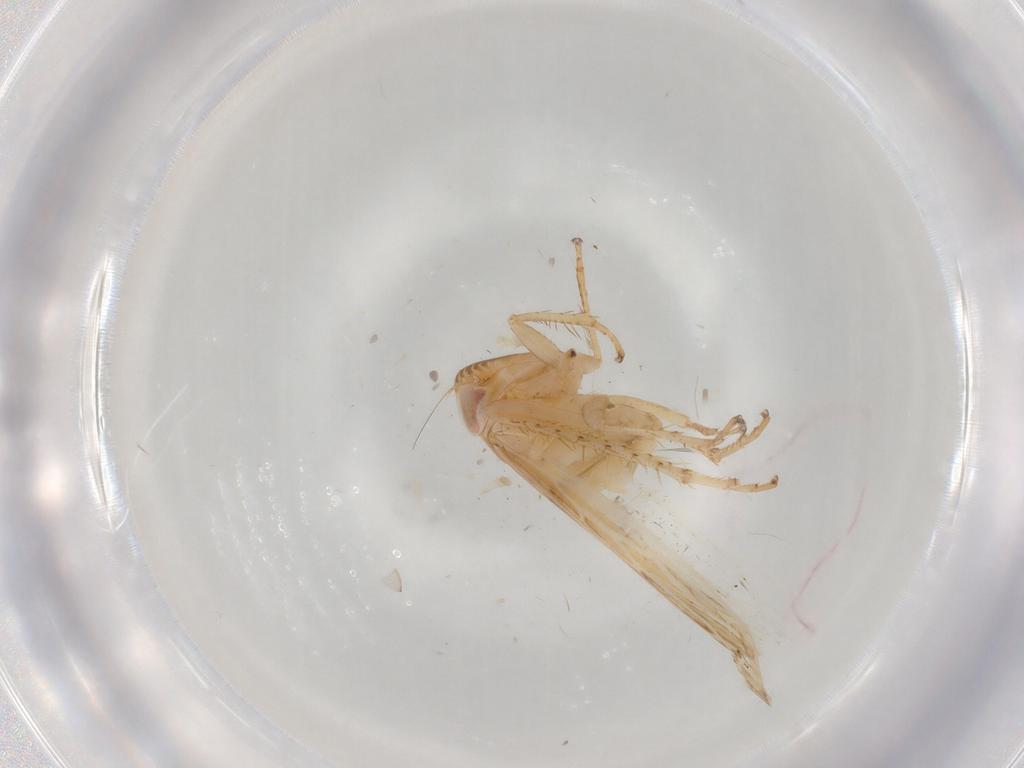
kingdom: Animalia
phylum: Arthropoda
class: Insecta
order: Hemiptera
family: Cicadellidae
